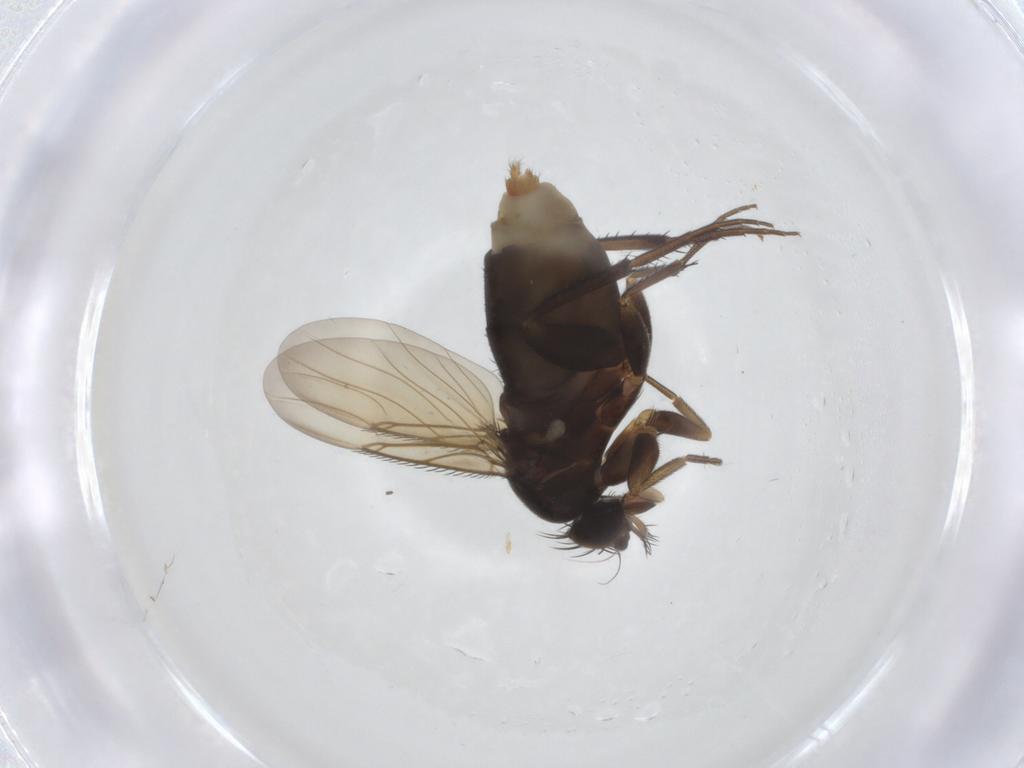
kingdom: Animalia
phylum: Arthropoda
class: Insecta
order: Diptera
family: Phoridae
